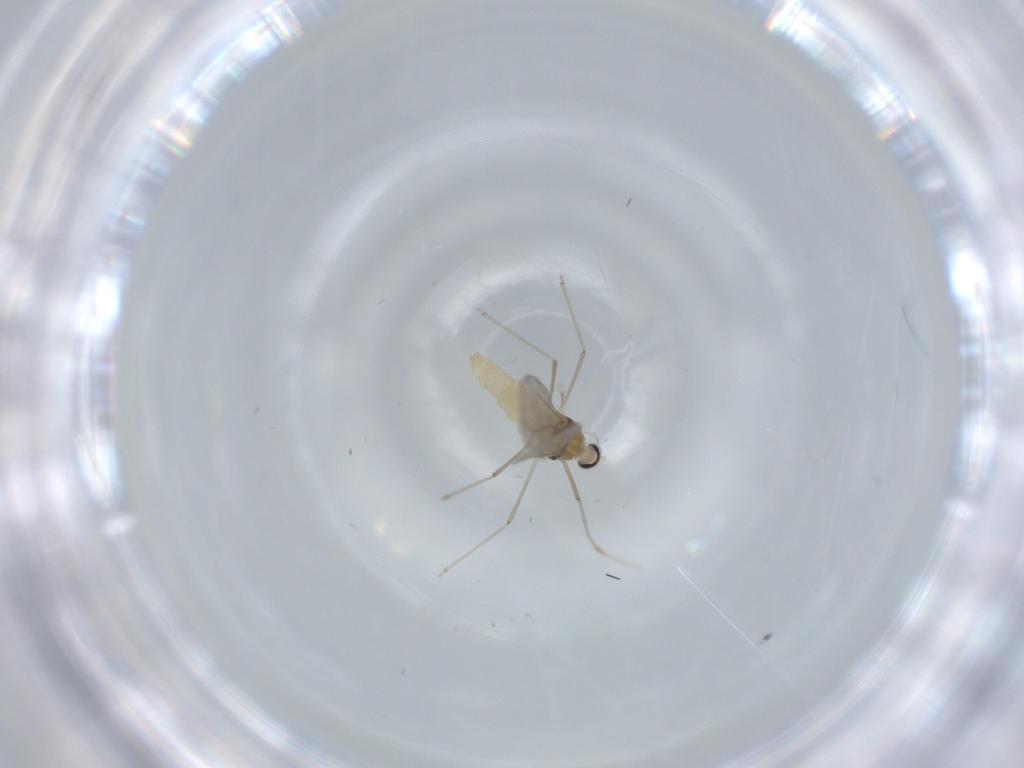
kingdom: Animalia
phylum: Arthropoda
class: Insecta
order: Diptera
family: Cecidomyiidae
